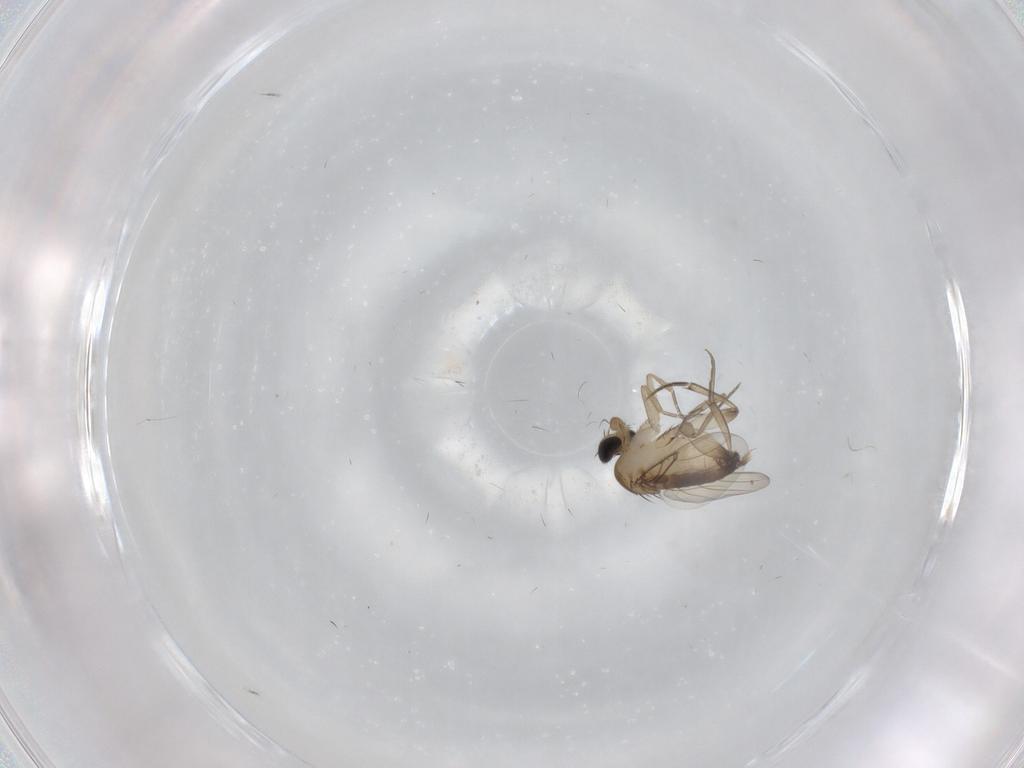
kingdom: Animalia
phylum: Arthropoda
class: Insecta
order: Diptera
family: Phoridae
